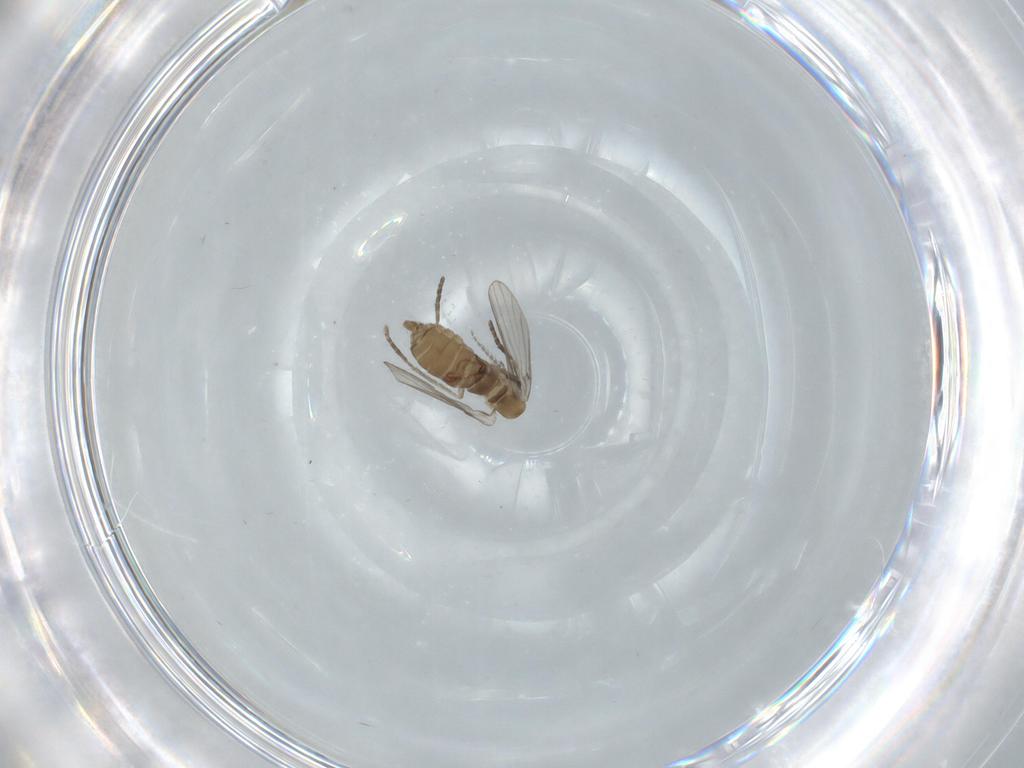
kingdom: Animalia
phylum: Arthropoda
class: Insecta
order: Diptera
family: Psychodidae
